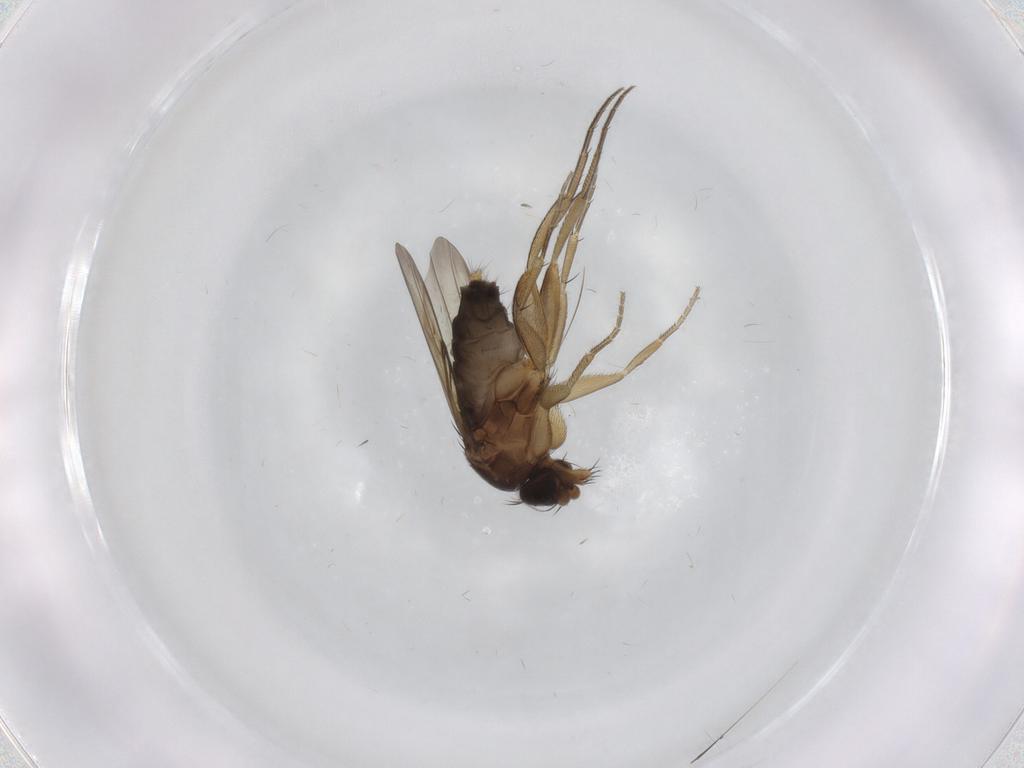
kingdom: Animalia
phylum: Arthropoda
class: Insecta
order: Diptera
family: Phoridae
